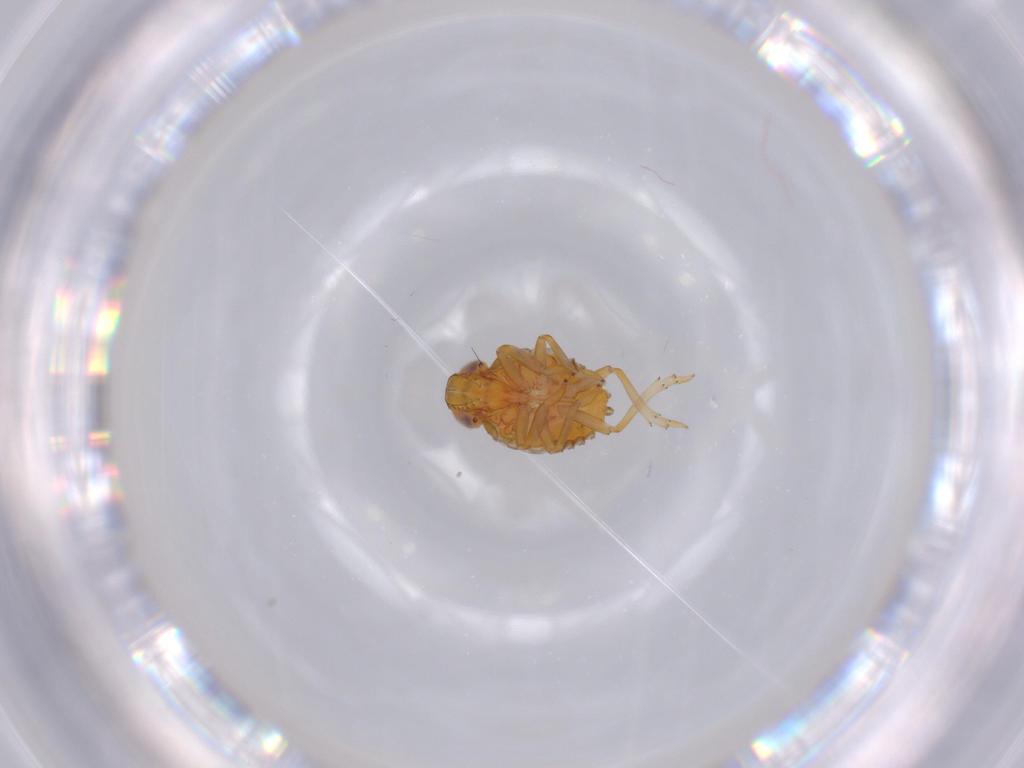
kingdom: Animalia
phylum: Arthropoda
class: Insecta
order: Hemiptera
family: Issidae
